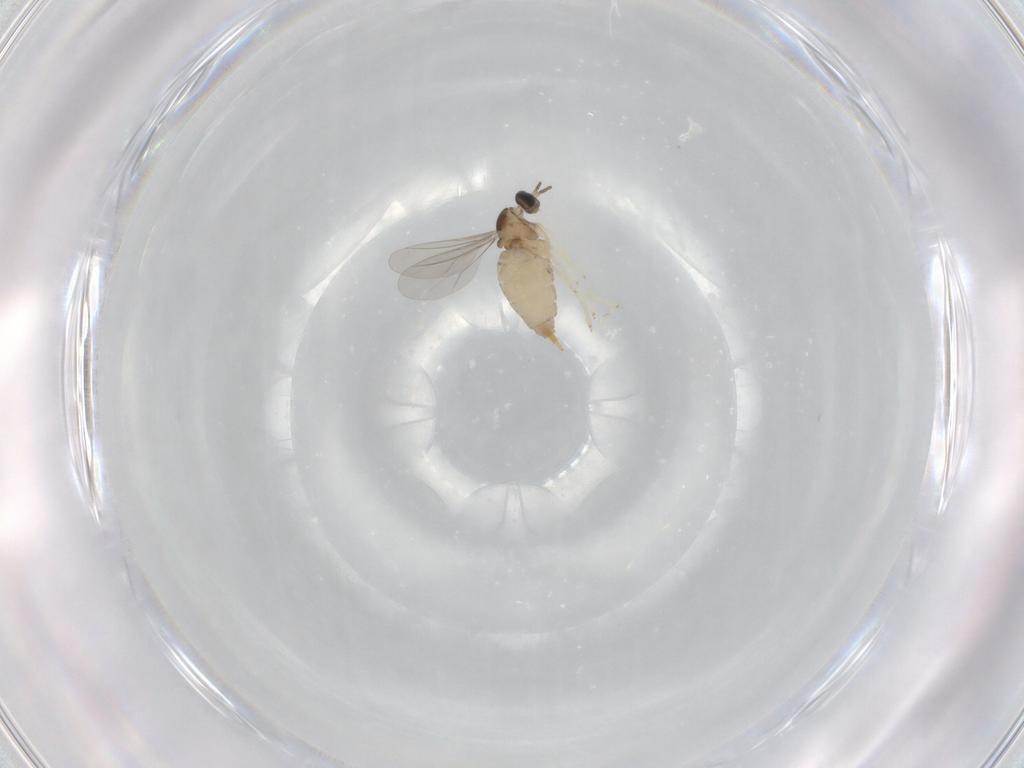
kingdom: Animalia
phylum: Arthropoda
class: Insecta
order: Diptera
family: Cecidomyiidae
